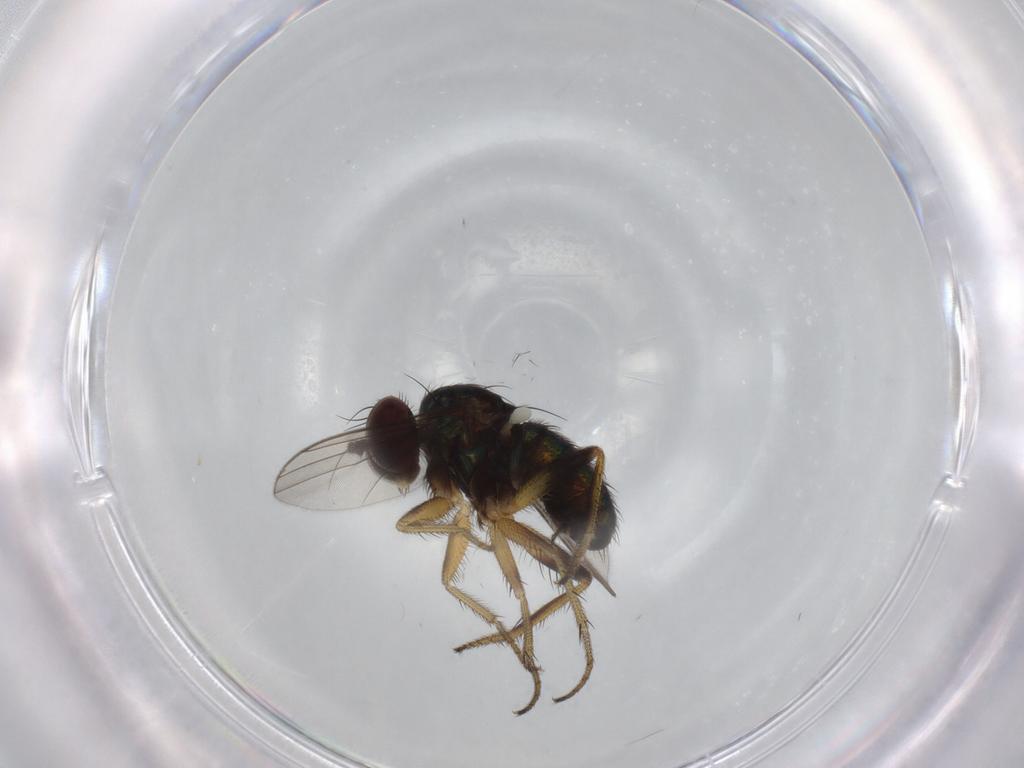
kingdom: Animalia
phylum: Arthropoda
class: Insecta
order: Diptera
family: Dolichopodidae
